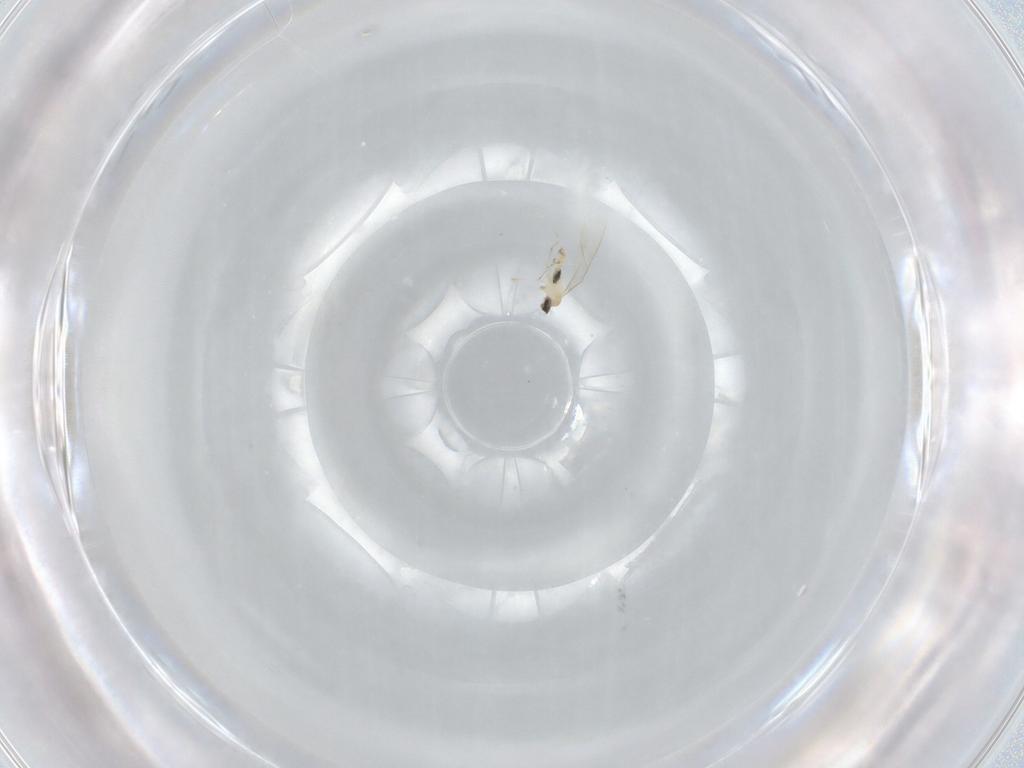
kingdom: Animalia
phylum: Arthropoda
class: Insecta
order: Diptera
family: Cecidomyiidae
